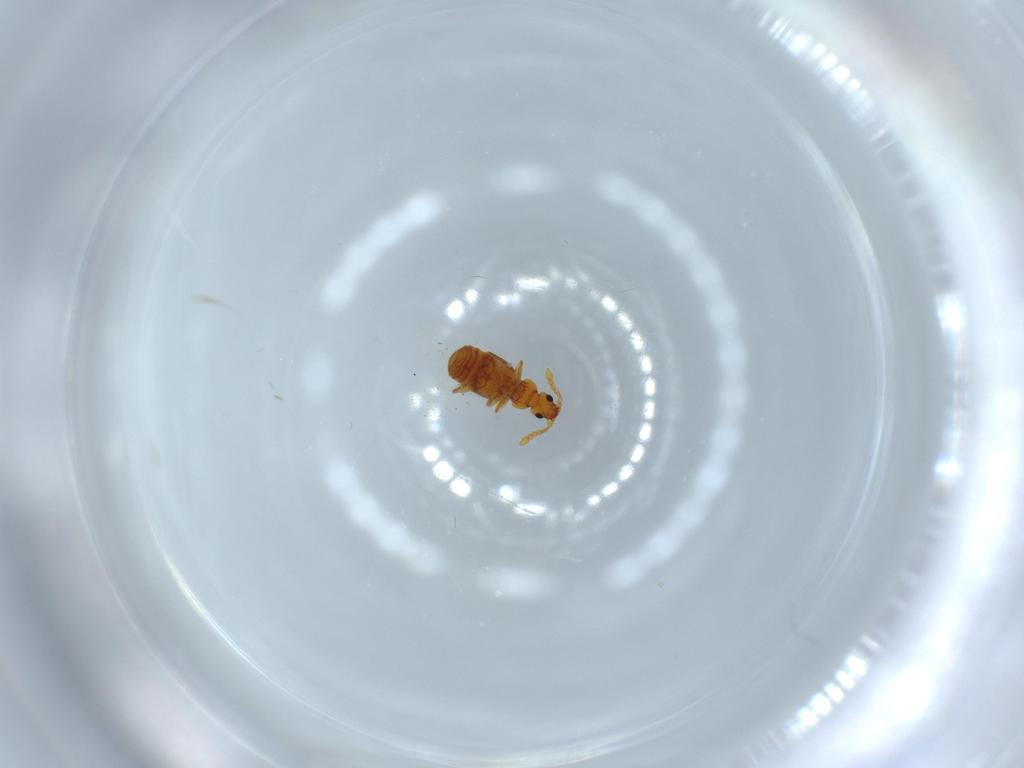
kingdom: Animalia
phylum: Arthropoda
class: Insecta
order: Coleoptera
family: Staphylinidae
